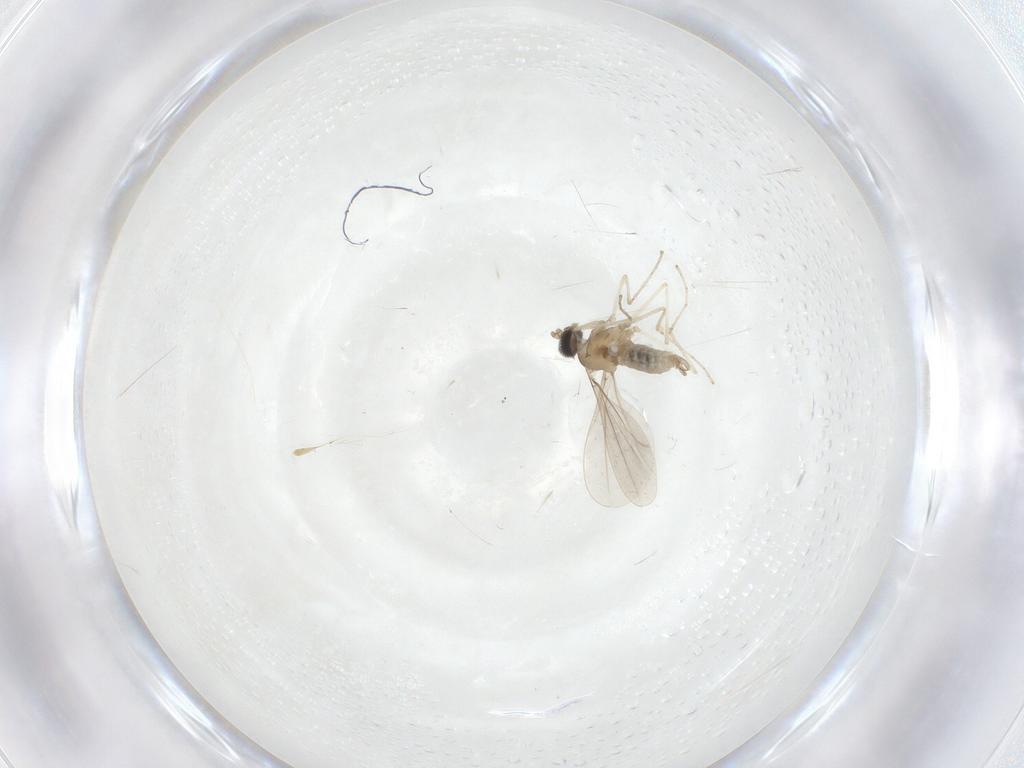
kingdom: Animalia
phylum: Arthropoda
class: Insecta
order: Diptera
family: Cecidomyiidae
